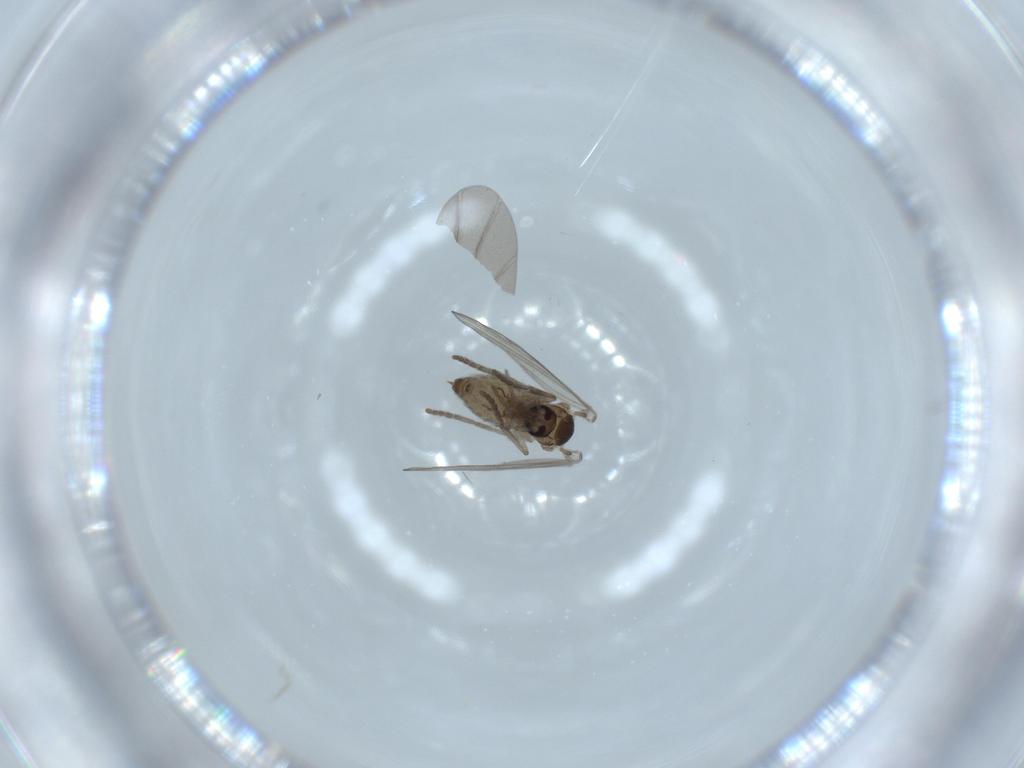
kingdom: Animalia
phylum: Arthropoda
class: Insecta
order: Diptera
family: Psychodidae
